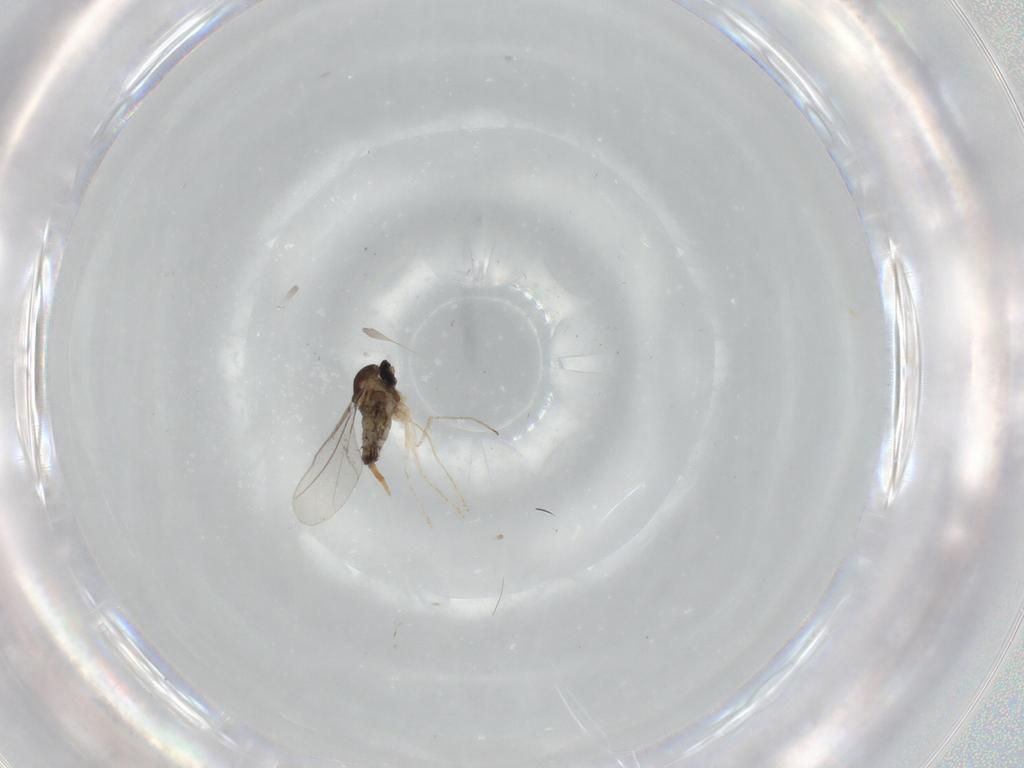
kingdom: Animalia
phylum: Arthropoda
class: Insecta
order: Diptera
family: Cecidomyiidae
